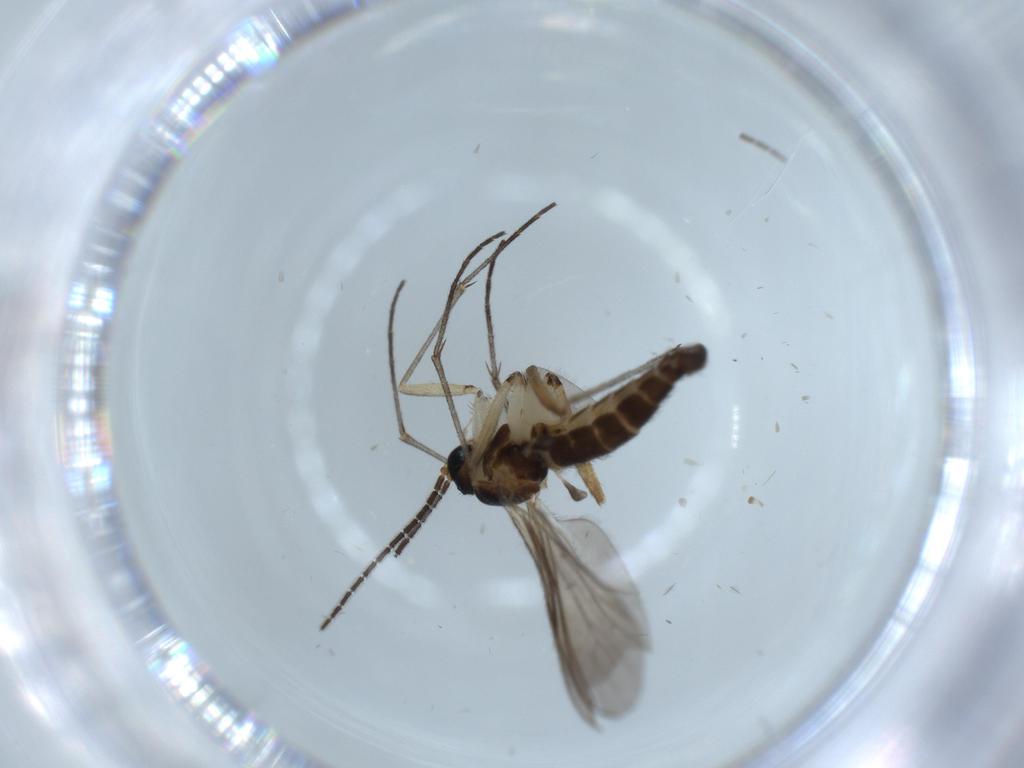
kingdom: Animalia
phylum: Arthropoda
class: Insecta
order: Diptera
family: Sciaridae
